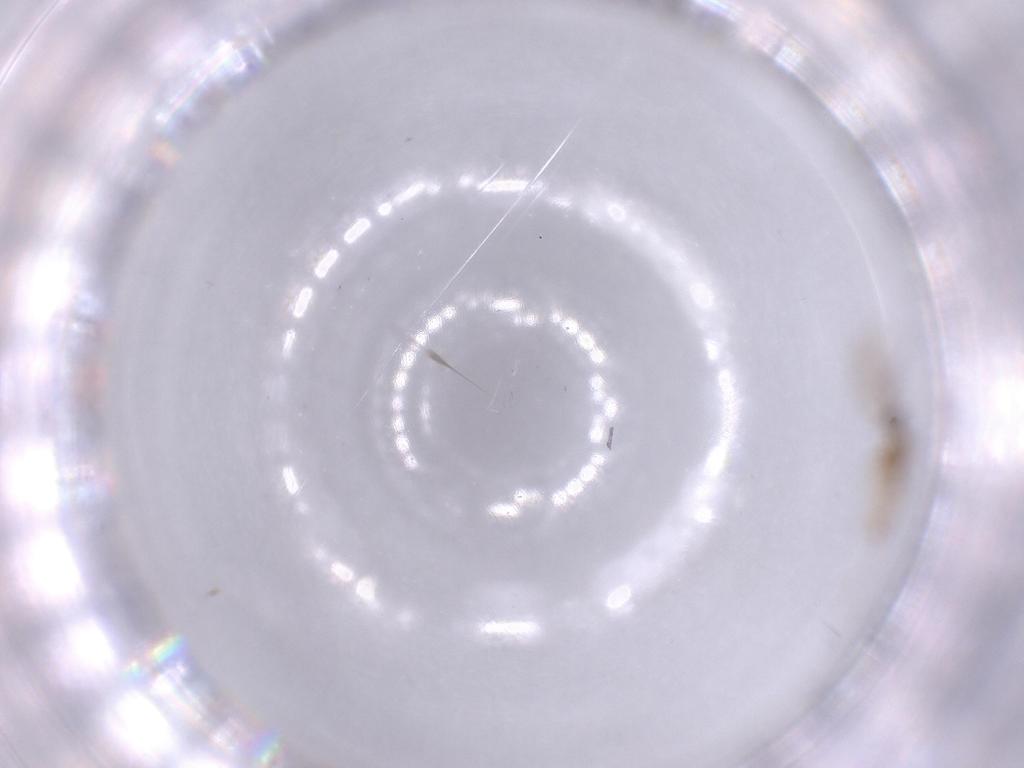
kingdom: Animalia
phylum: Arthropoda
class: Insecta
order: Diptera
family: Cecidomyiidae
